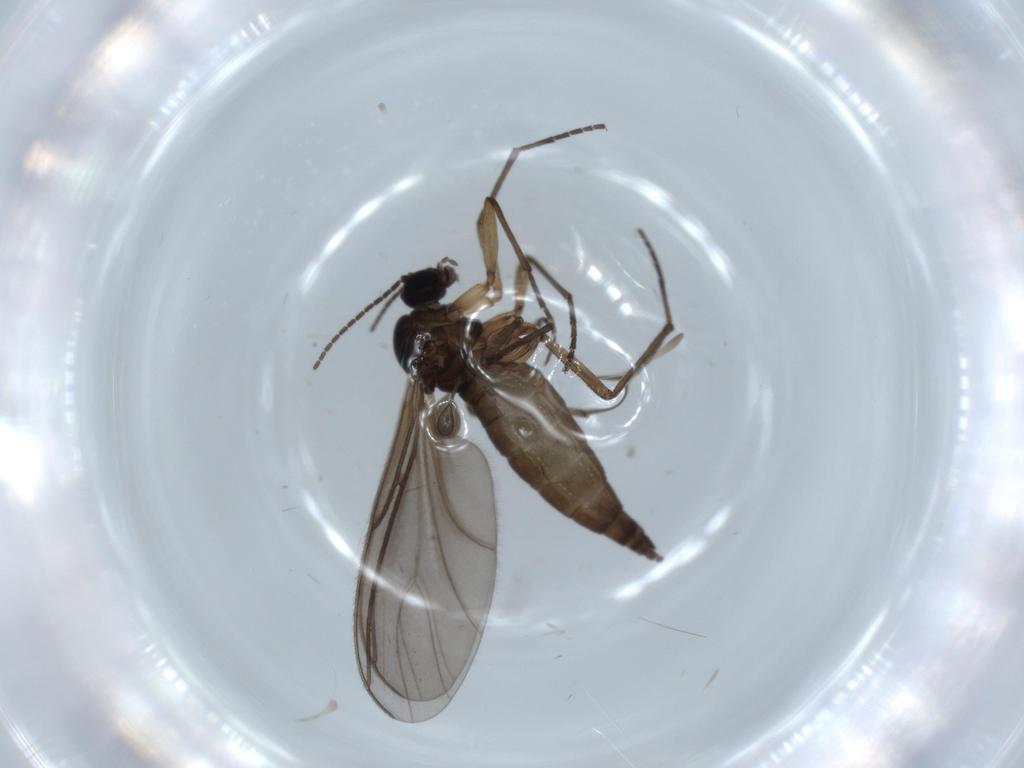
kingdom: Animalia
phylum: Arthropoda
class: Insecta
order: Diptera
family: Sciaridae
